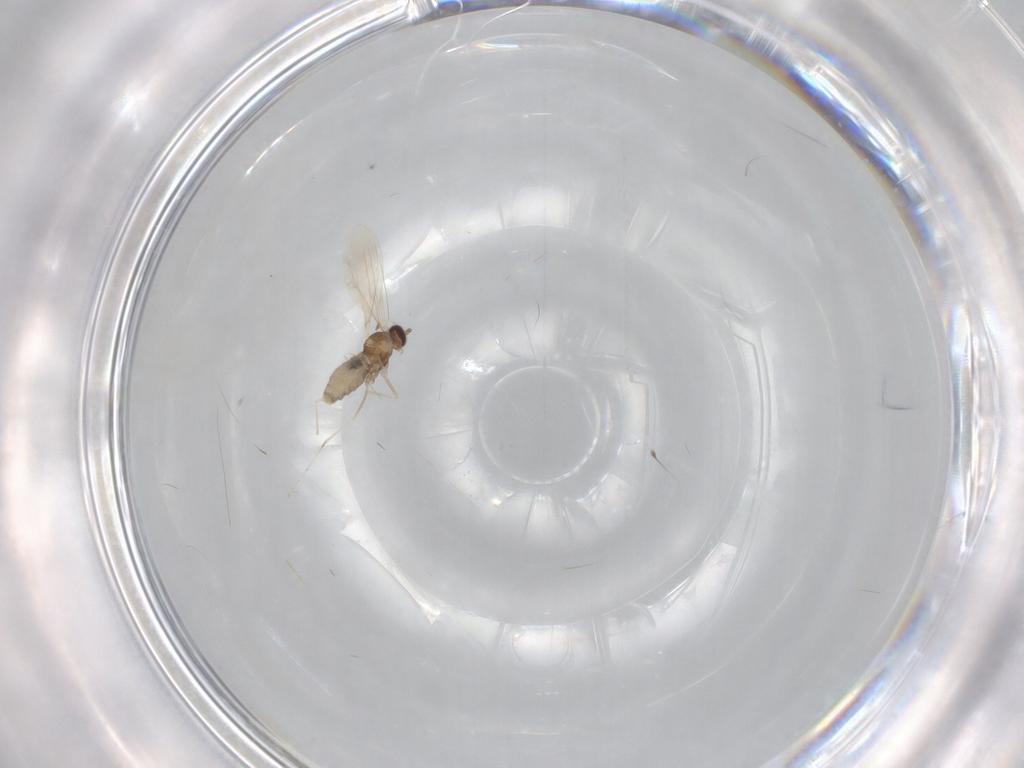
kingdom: Animalia
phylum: Arthropoda
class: Insecta
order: Diptera
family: Cecidomyiidae
